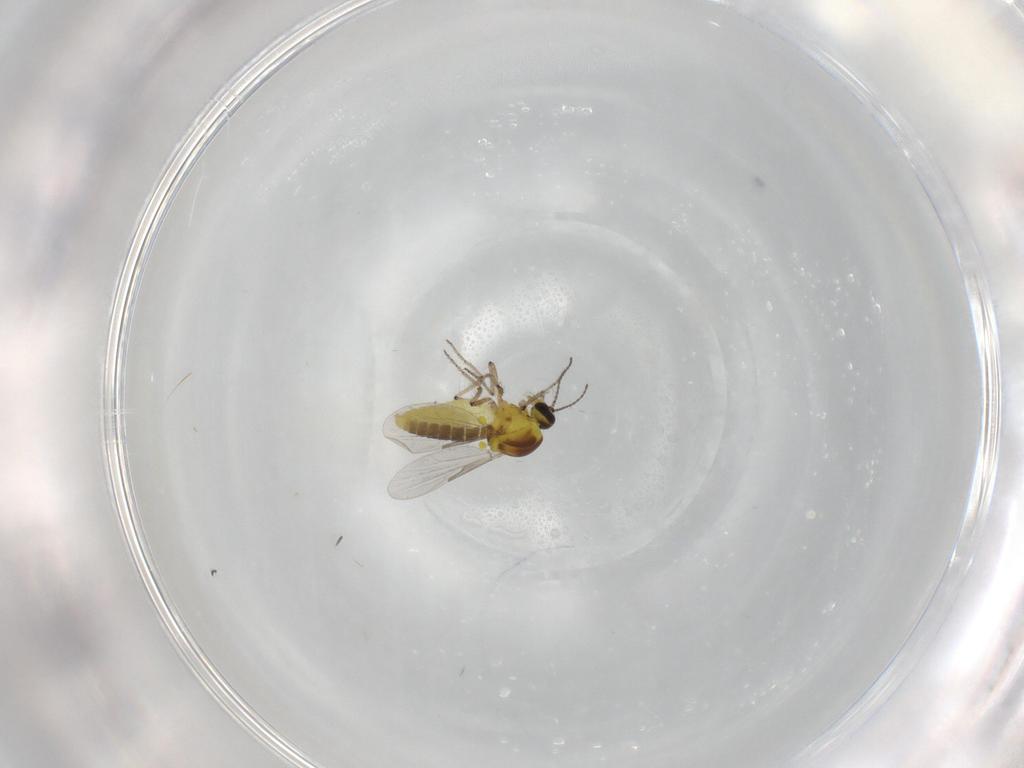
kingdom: Animalia
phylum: Arthropoda
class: Insecta
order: Diptera
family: Ceratopogonidae
